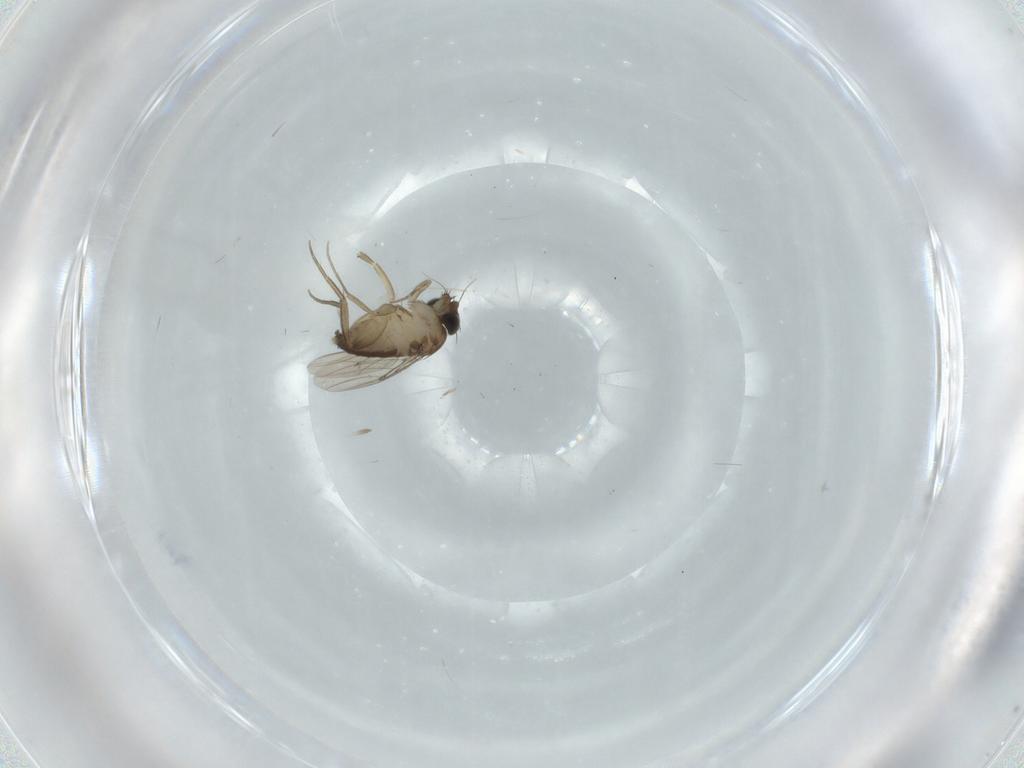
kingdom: Animalia
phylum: Arthropoda
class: Insecta
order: Diptera
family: Phoridae
